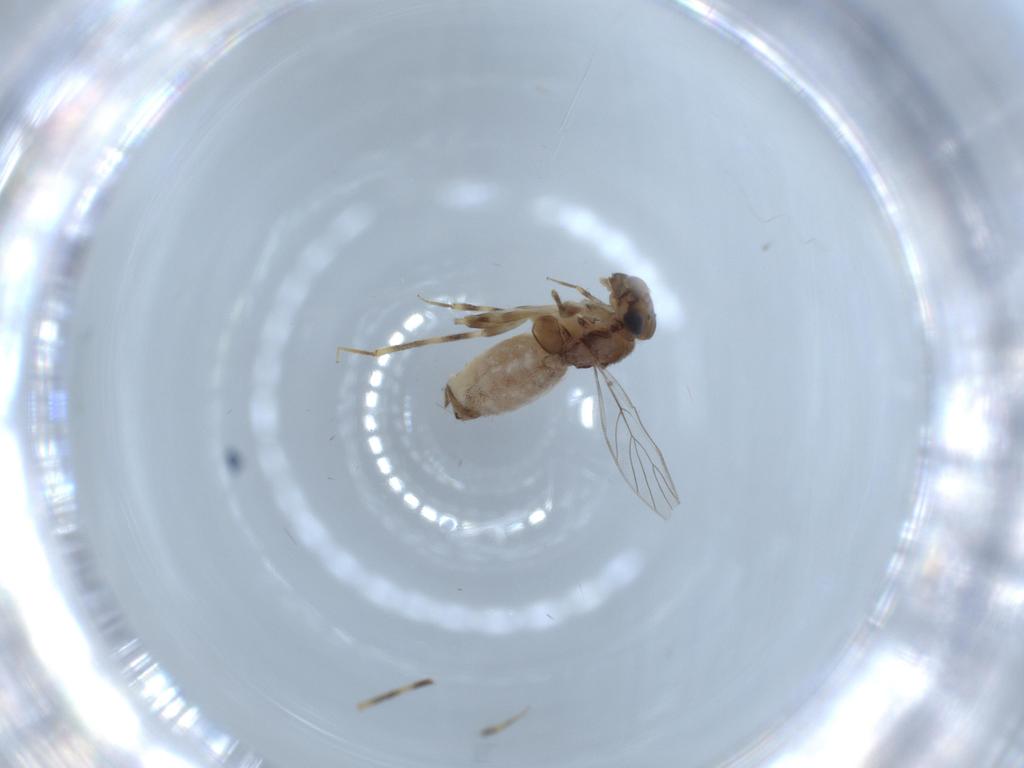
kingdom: Animalia
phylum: Arthropoda
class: Insecta
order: Psocodea
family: Lepidopsocidae
